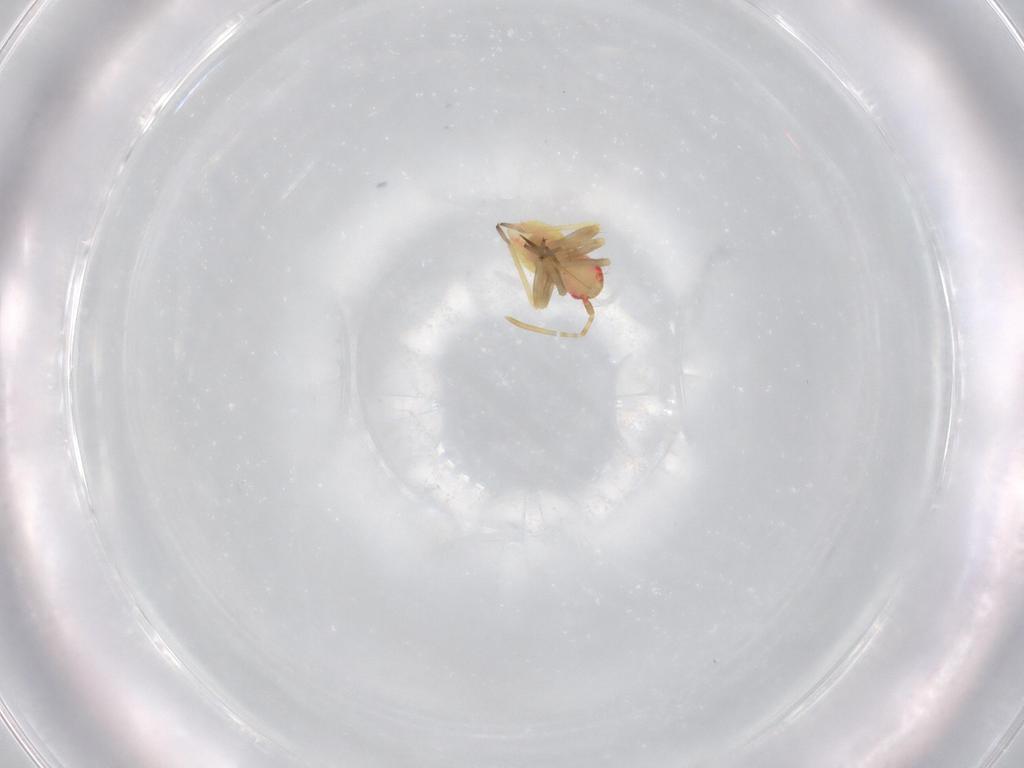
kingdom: Animalia
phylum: Arthropoda
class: Insecta
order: Hemiptera
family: Miridae
